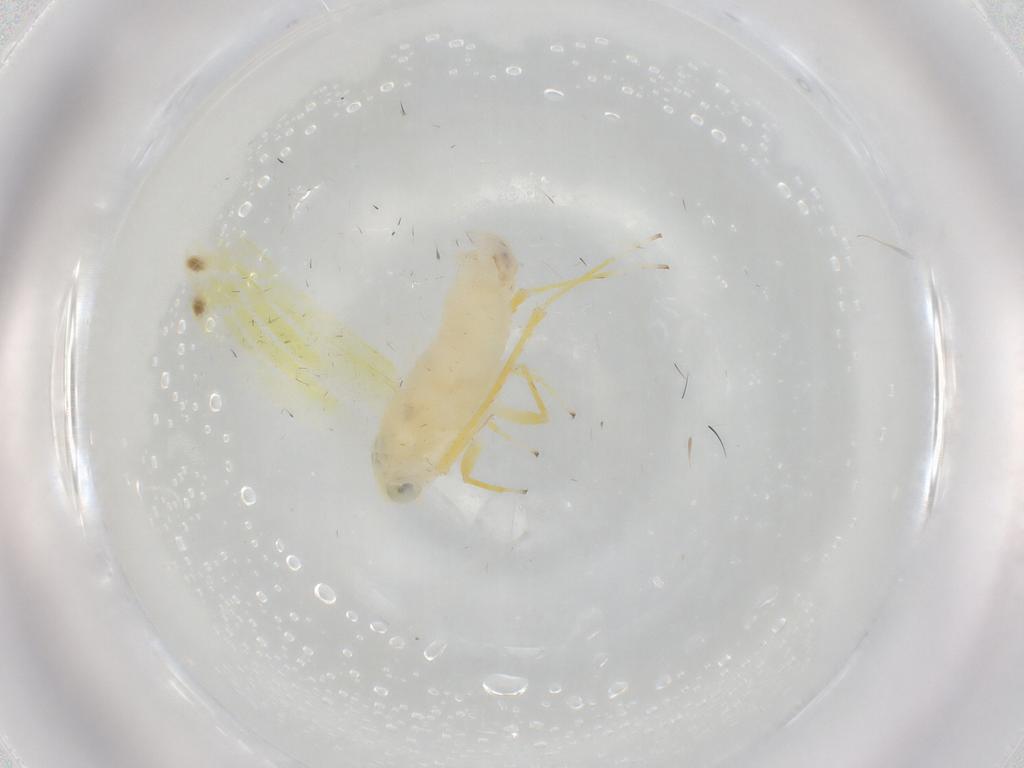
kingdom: Animalia
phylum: Arthropoda
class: Insecta
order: Hemiptera
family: Cicadellidae
